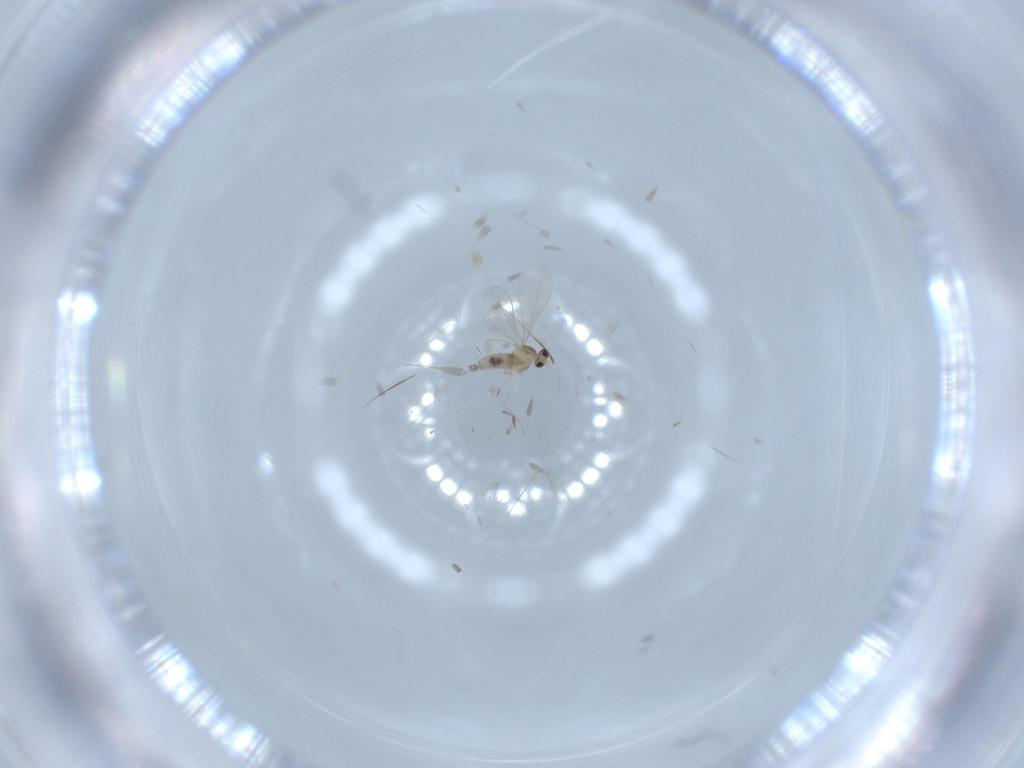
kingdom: Animalia
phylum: Arthropoda
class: Insecta
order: Diptera
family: Cecidomyiidae
